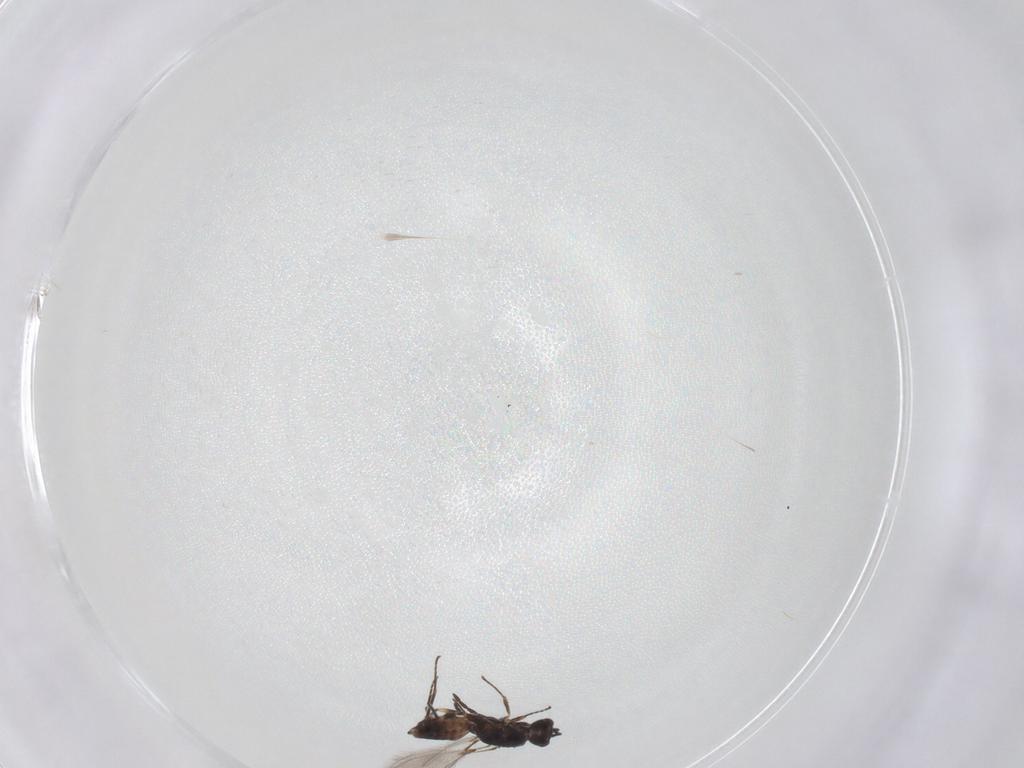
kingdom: Animalia
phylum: Arthropoda
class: Insecta
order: Hymenoptera
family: Mymaridae
